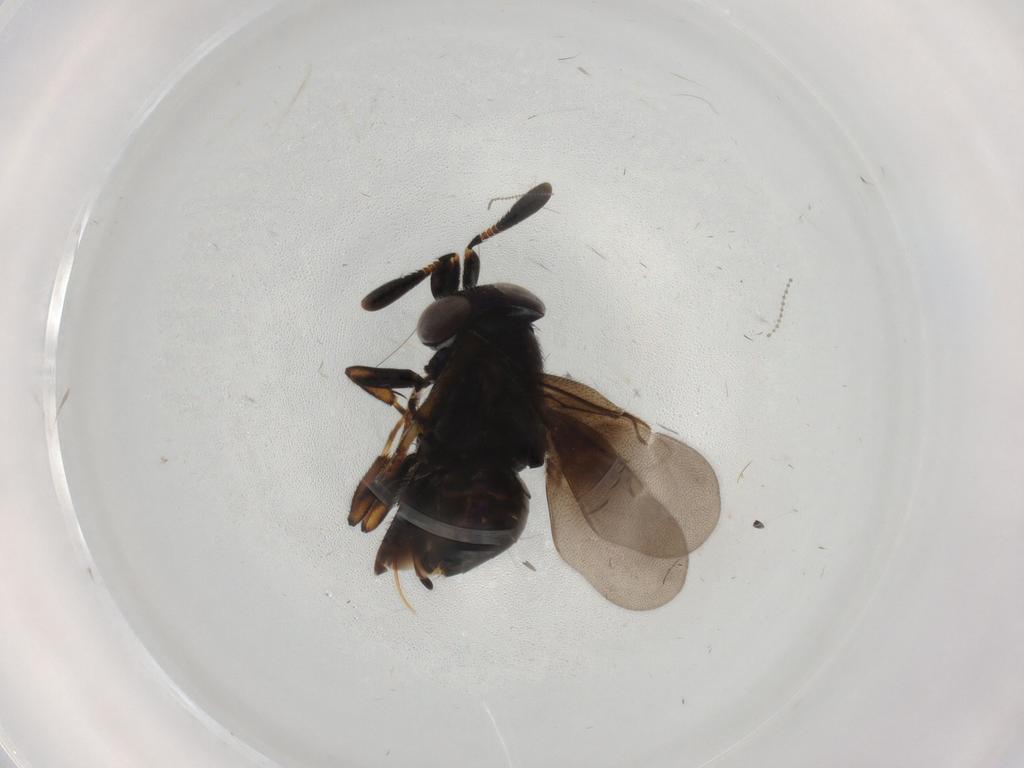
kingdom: Animalia
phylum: Arthropoda
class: Insecta
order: Hymenoptera
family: Encyrtidae
